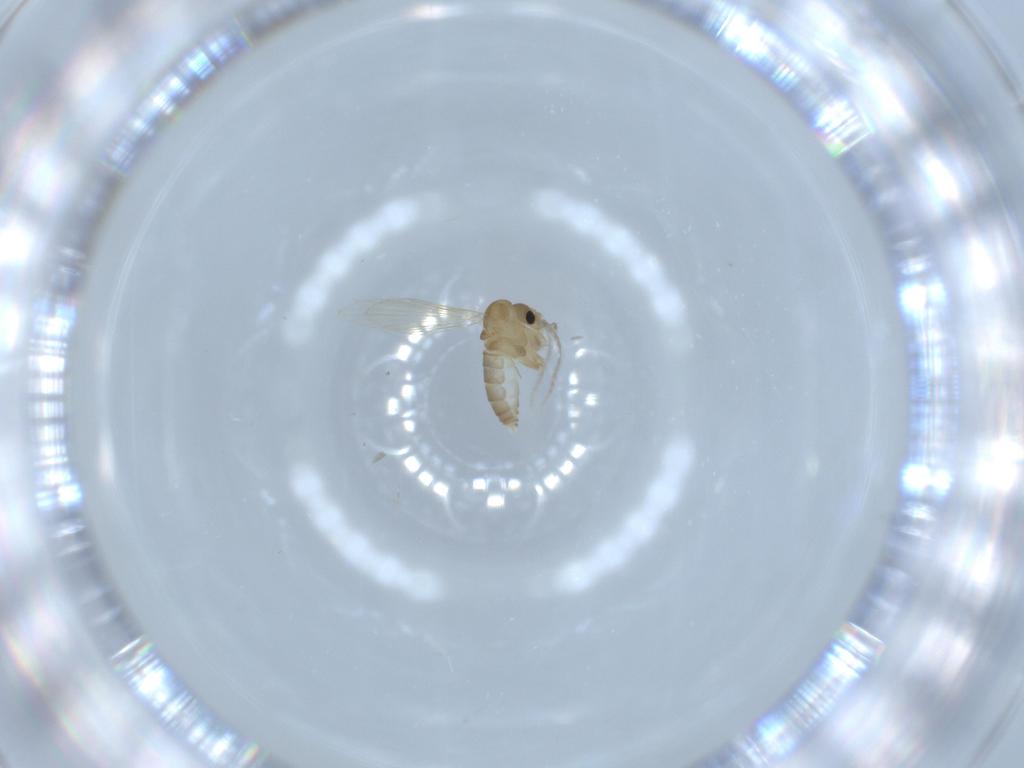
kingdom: Animalia
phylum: Arthropoda
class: Insecta
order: Diptera
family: Psychodidae
